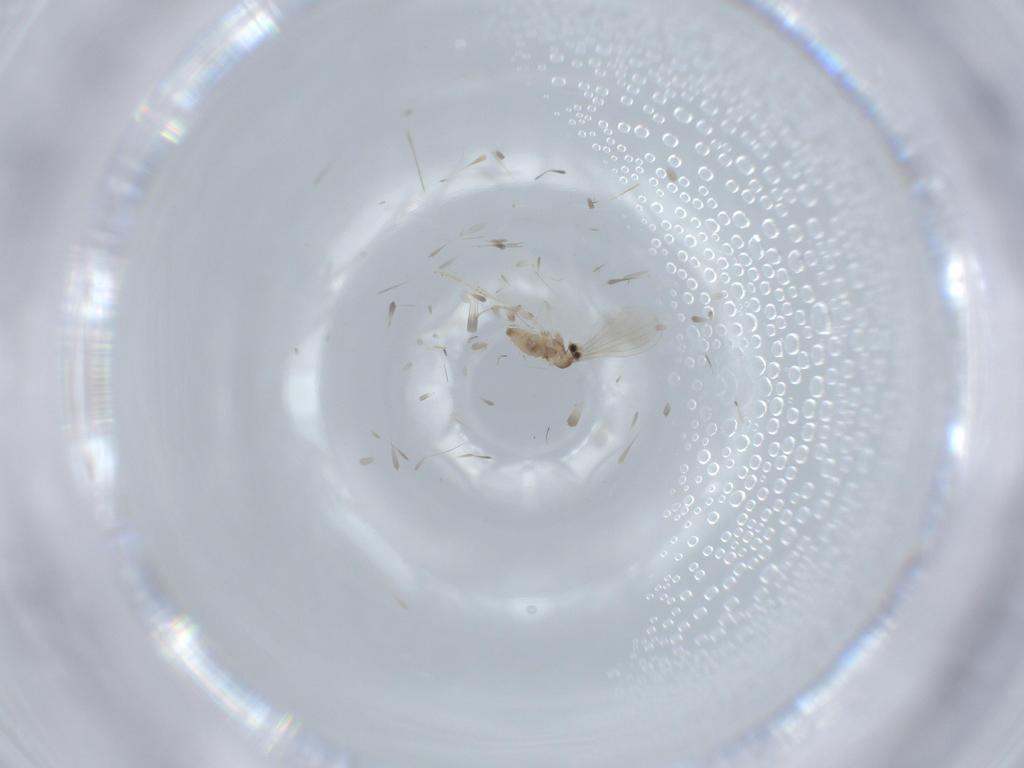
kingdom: Animalia
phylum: Arthropoda
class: Insecta
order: Diptera
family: Cecidomyiidae
